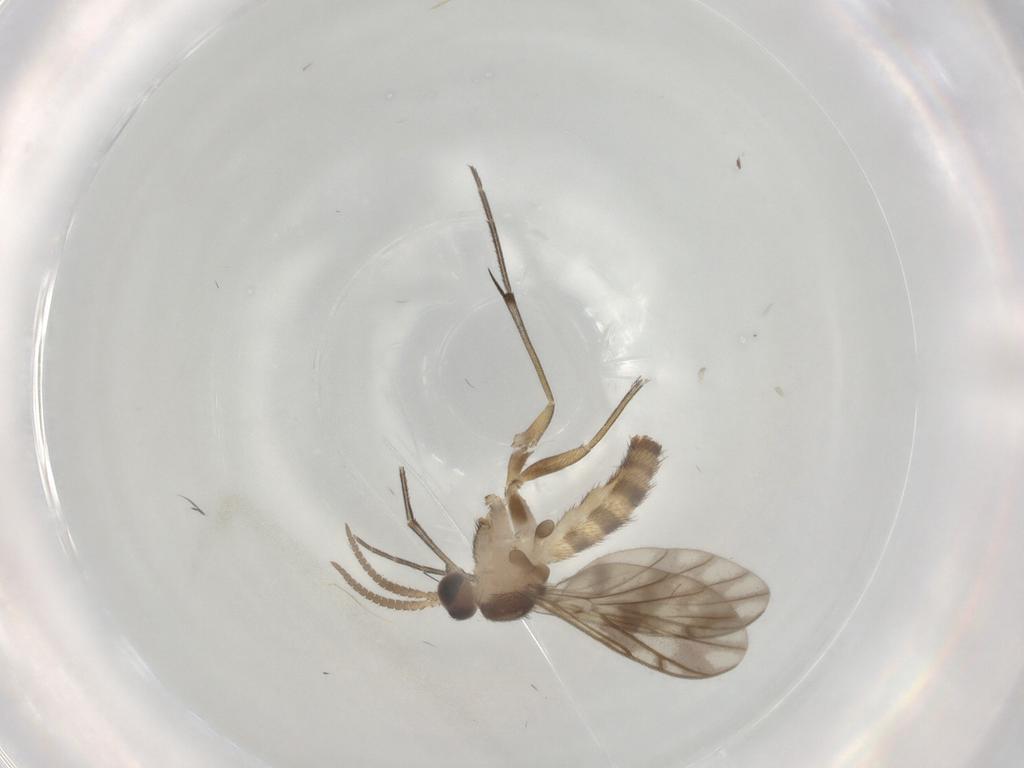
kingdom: Animalia
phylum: Arthropoda
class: Insecta
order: Diptera
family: Keroplatidae
